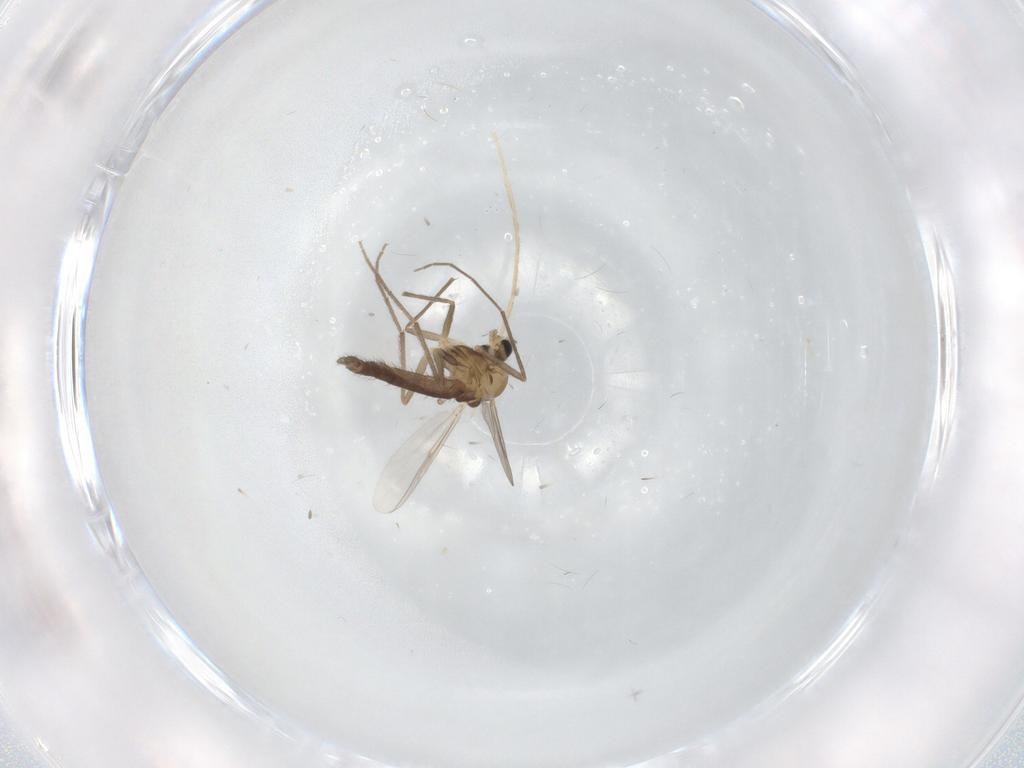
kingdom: Animalia
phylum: Arthropoda
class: Insecta
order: Diptera
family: Chironomidae
